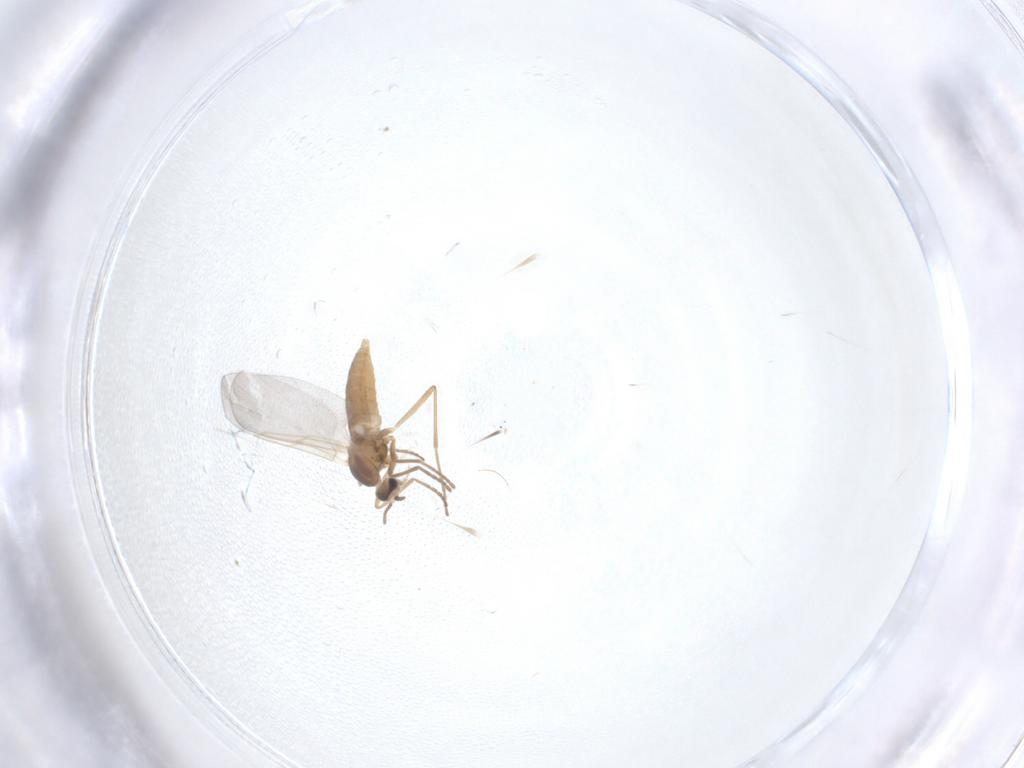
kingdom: Animalia
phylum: Arthropoda
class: Insecta
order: Diptera
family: Cecidomyiidae
